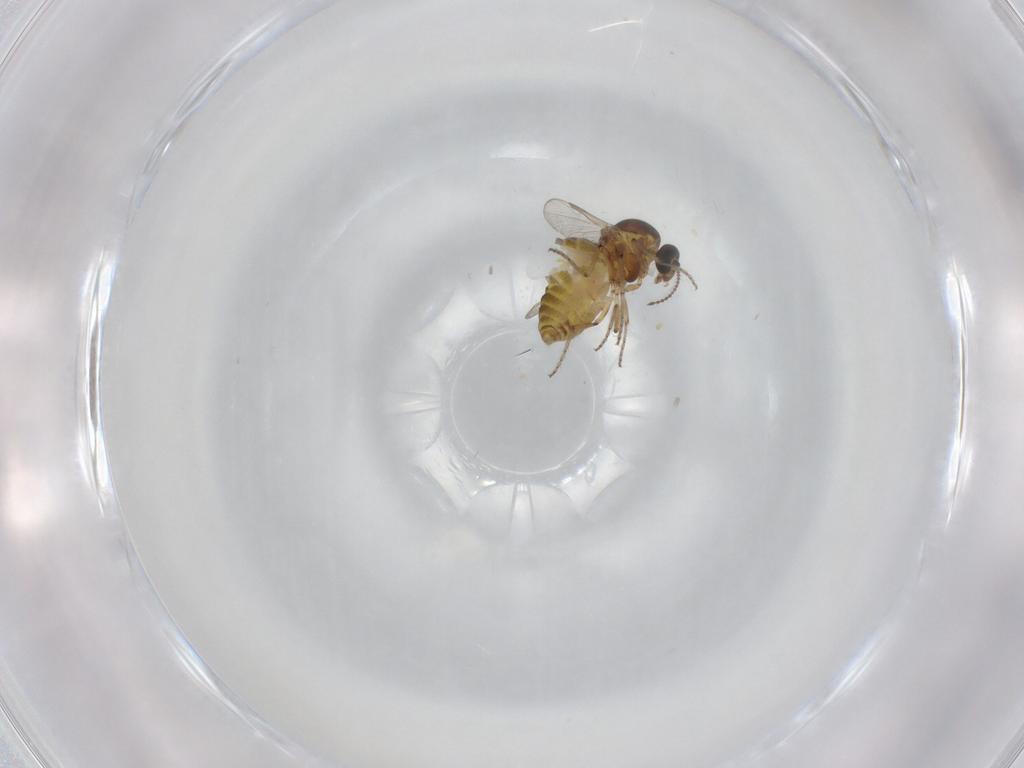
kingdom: Animalia
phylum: Arthropoda
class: Insecta
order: Diptera
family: Ceratopogonidae
